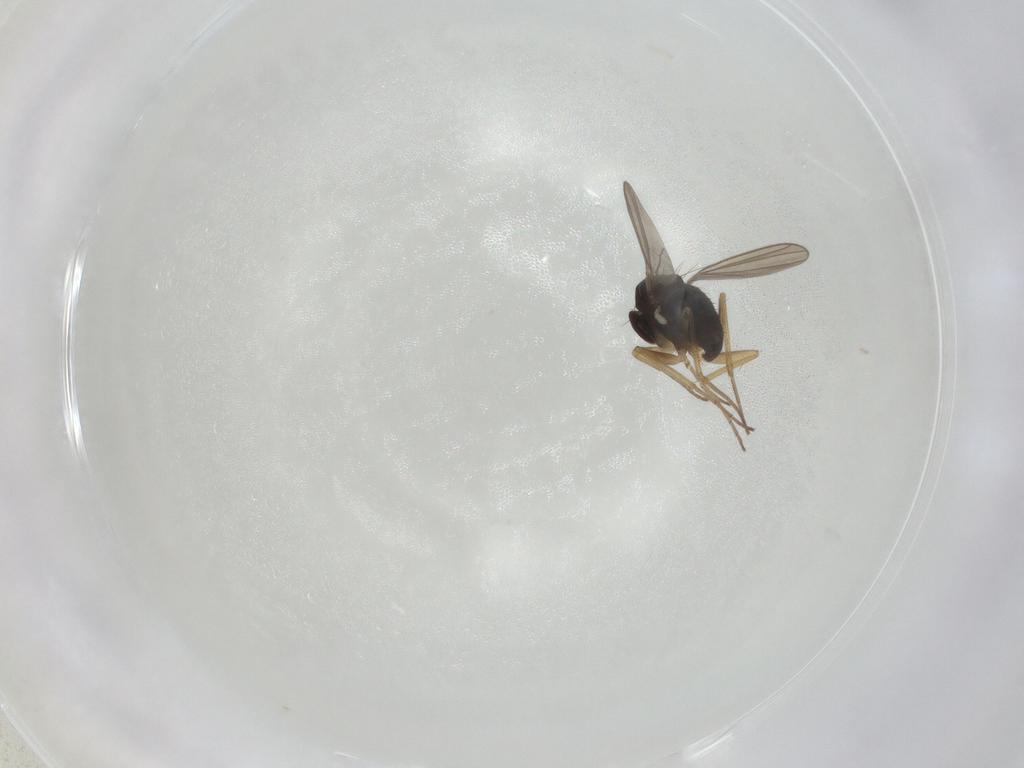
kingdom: Animalia
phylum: Arthropoda
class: Insecta
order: Diptera
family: Dolichopodidae
